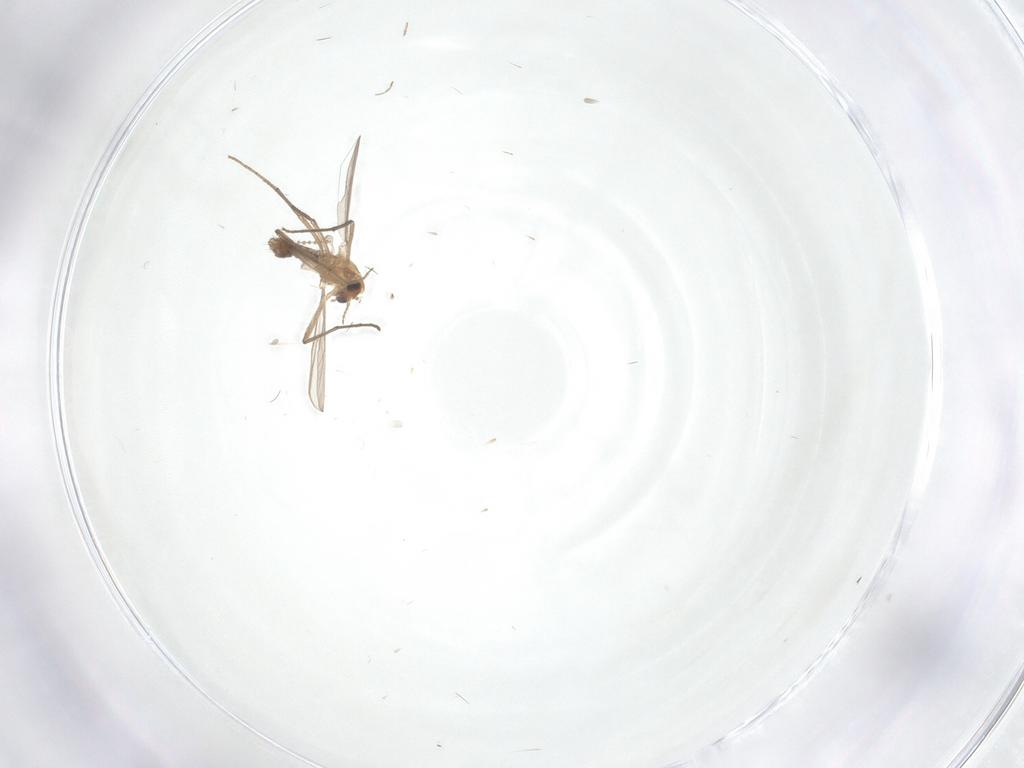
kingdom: Animalia
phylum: Arthropoda
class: Insecta
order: Diptera
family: Chironomidae
